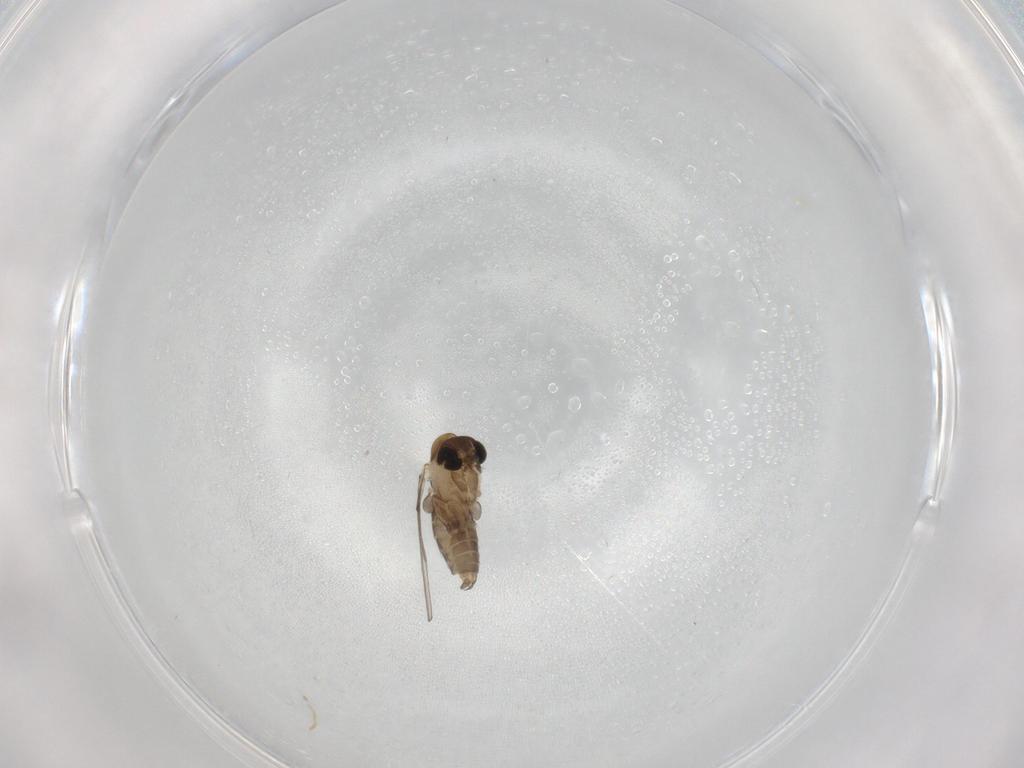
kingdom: Animalia
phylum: Arthropoda
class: Insecta
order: Diptera
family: Psychodidae
